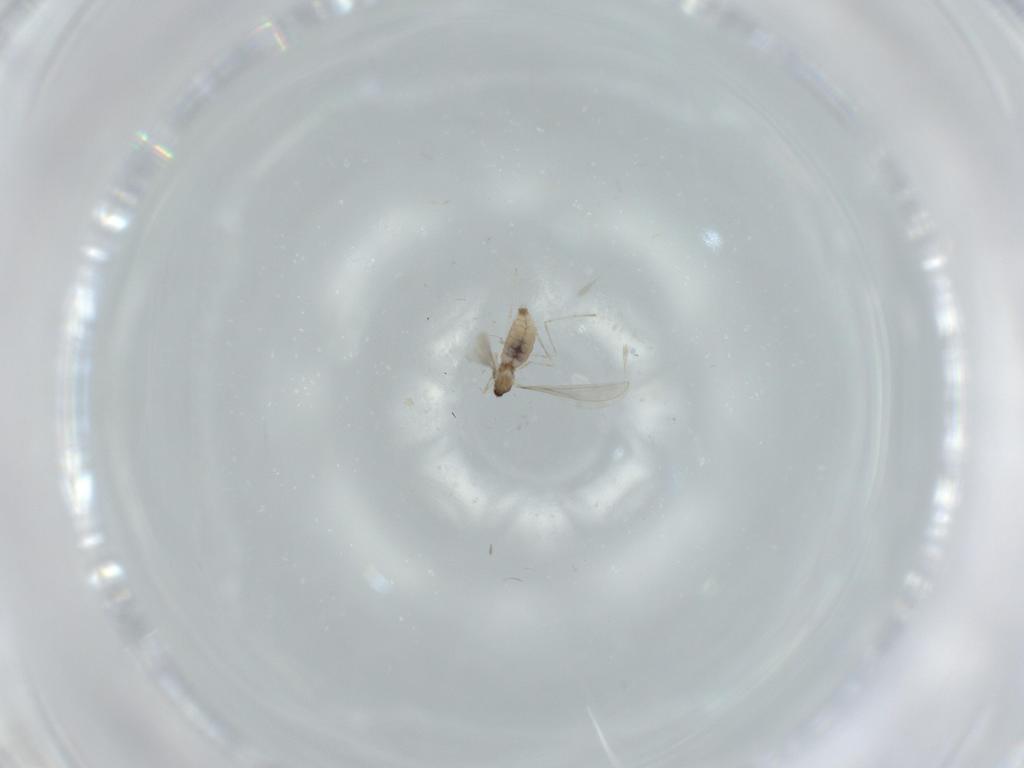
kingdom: Animalia
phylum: Arthropoda
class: Insecta
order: Diptera
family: Cecidomyiidae
